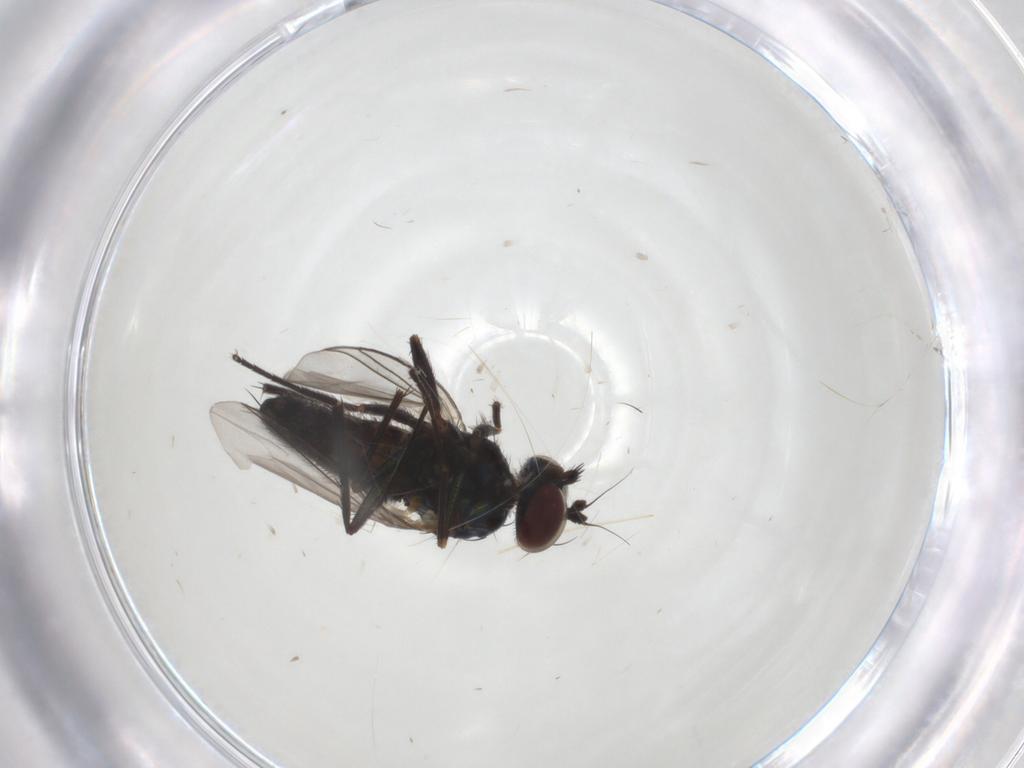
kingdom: Animalia
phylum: Arthropoda
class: Insecta
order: Diptera
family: Dolichopodidae
